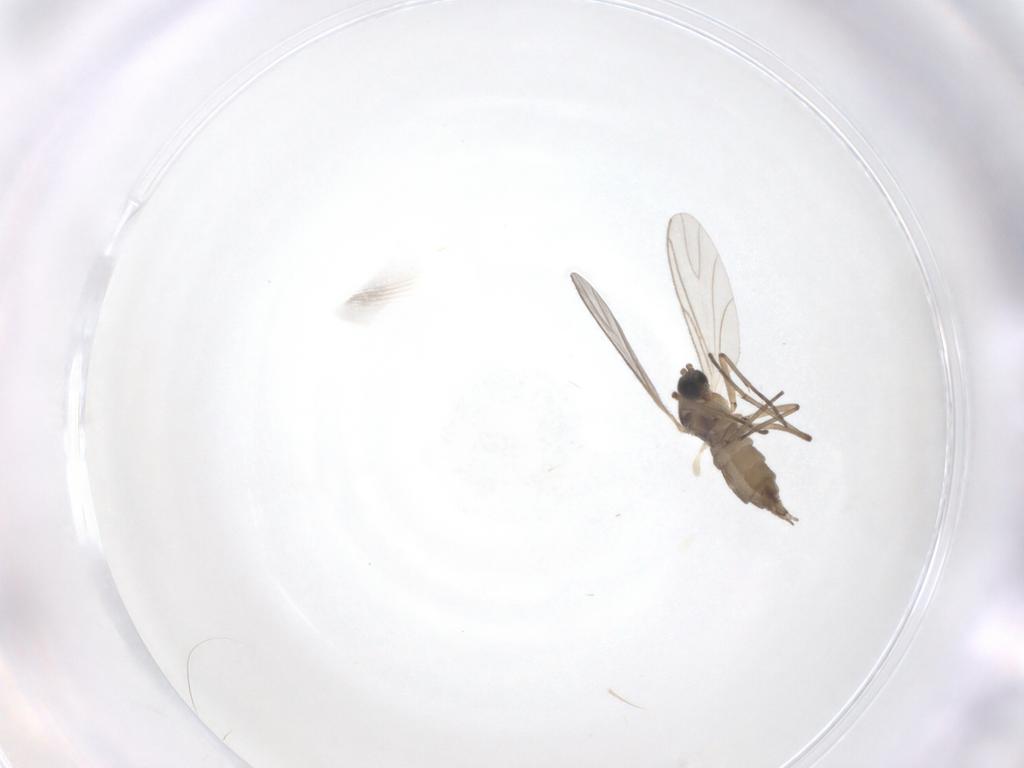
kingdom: Animalia
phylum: Arthropoda
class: Insecta
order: Diptera
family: Sciaridae
